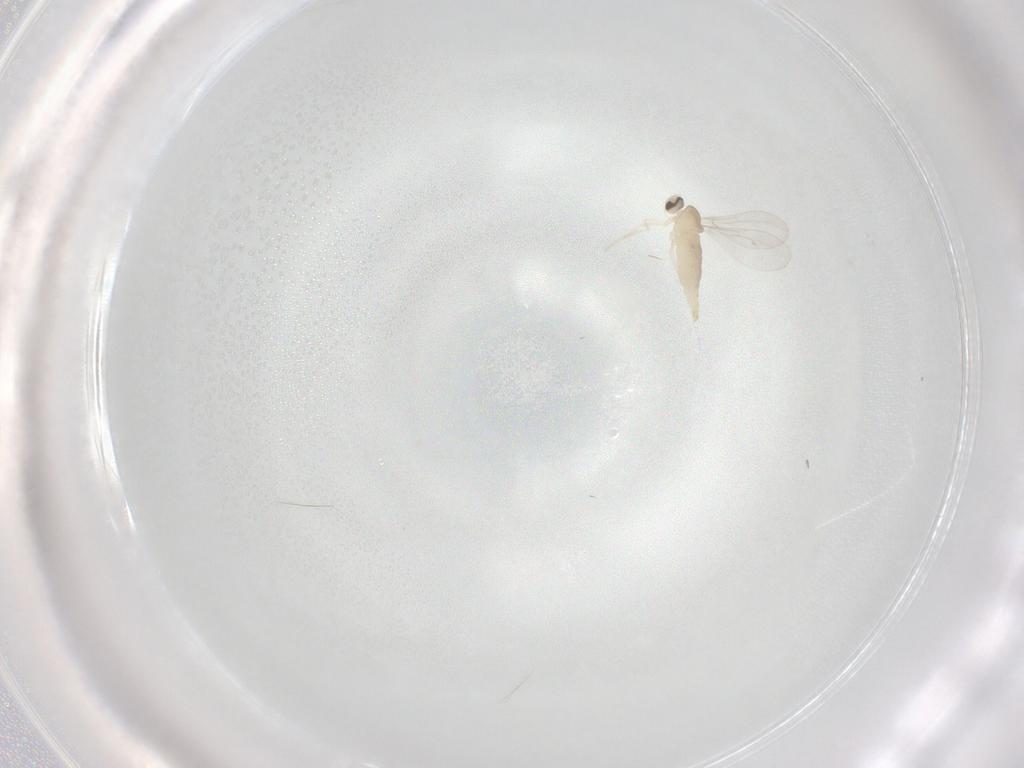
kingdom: Animalia
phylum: Arthropoda
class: Insecta
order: Diptera
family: Cecidomyiidae
